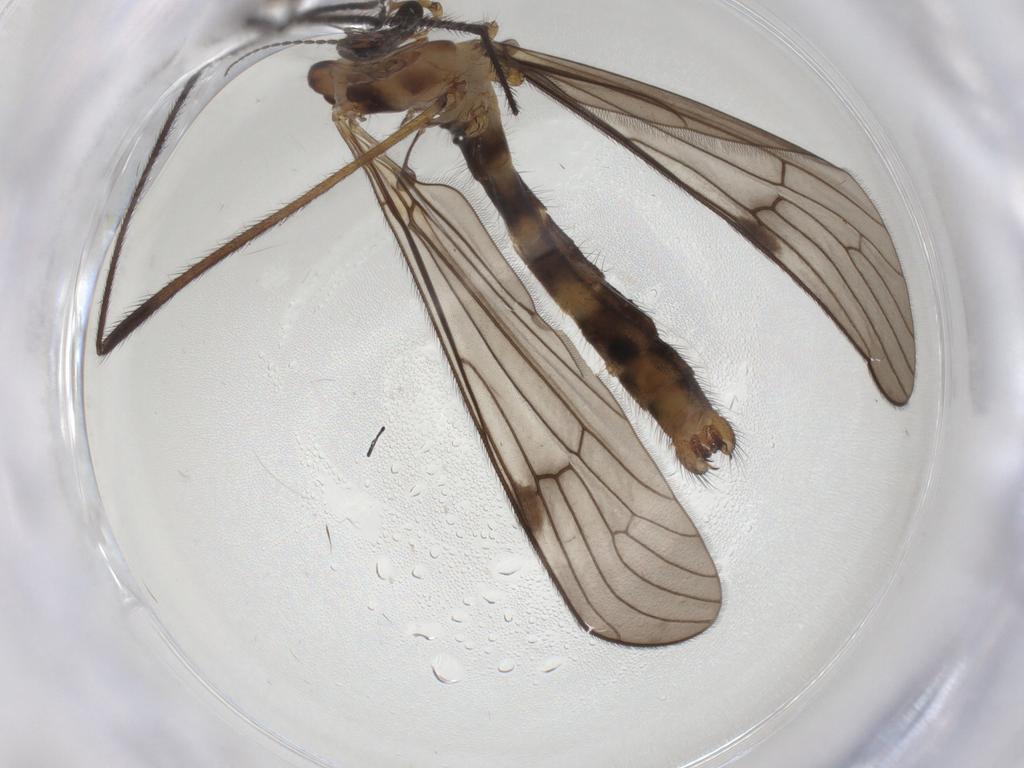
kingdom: Animalia
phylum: Arthropoda
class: Insecta
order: Diptera
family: Limoniidae
